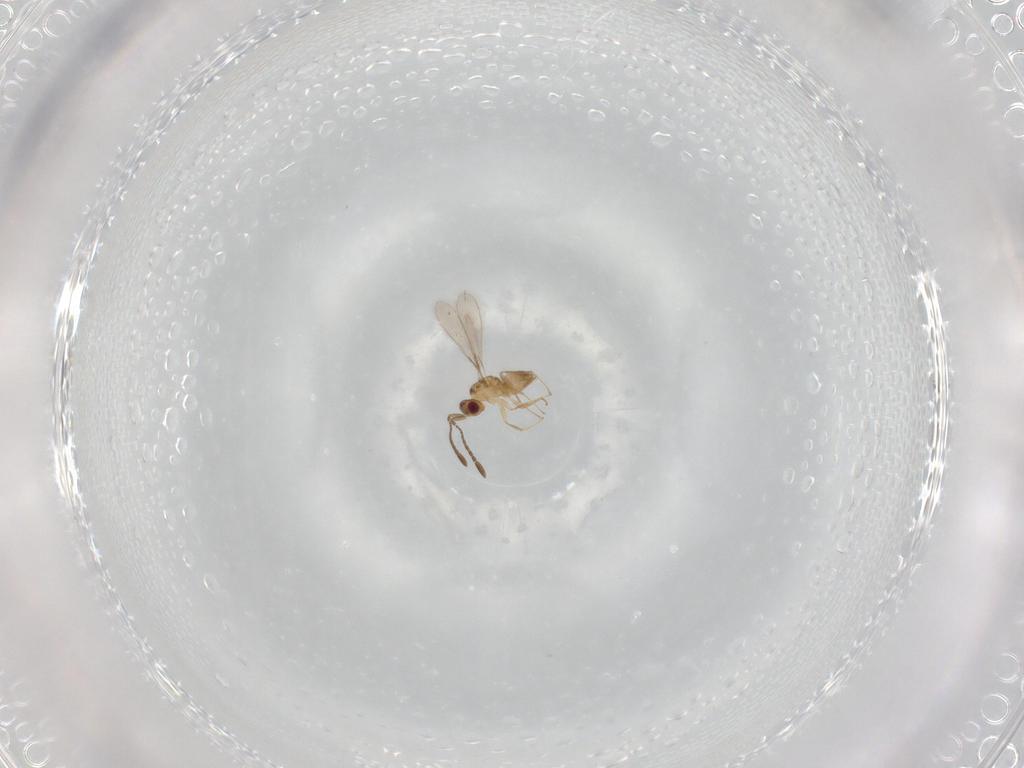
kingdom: Animalia
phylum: Arthropoda
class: Insecta
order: Hymenoptera
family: Mymaridae
